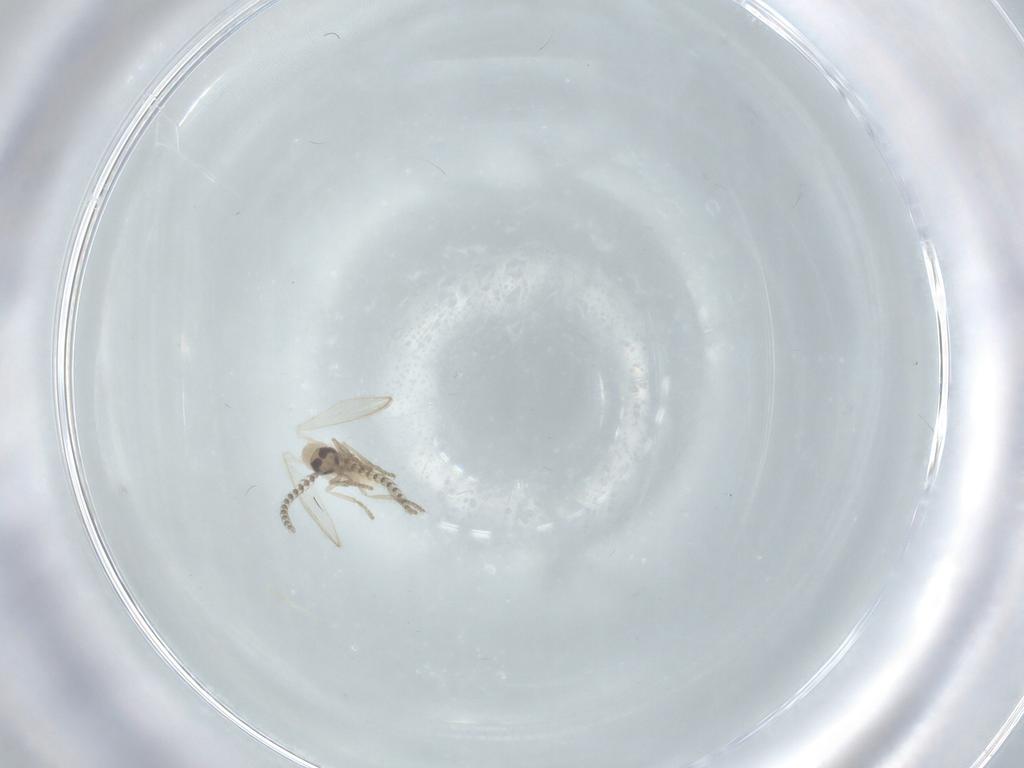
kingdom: Animalia
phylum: Arthropoda
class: Insecta
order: Diptera
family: Psychodidae
